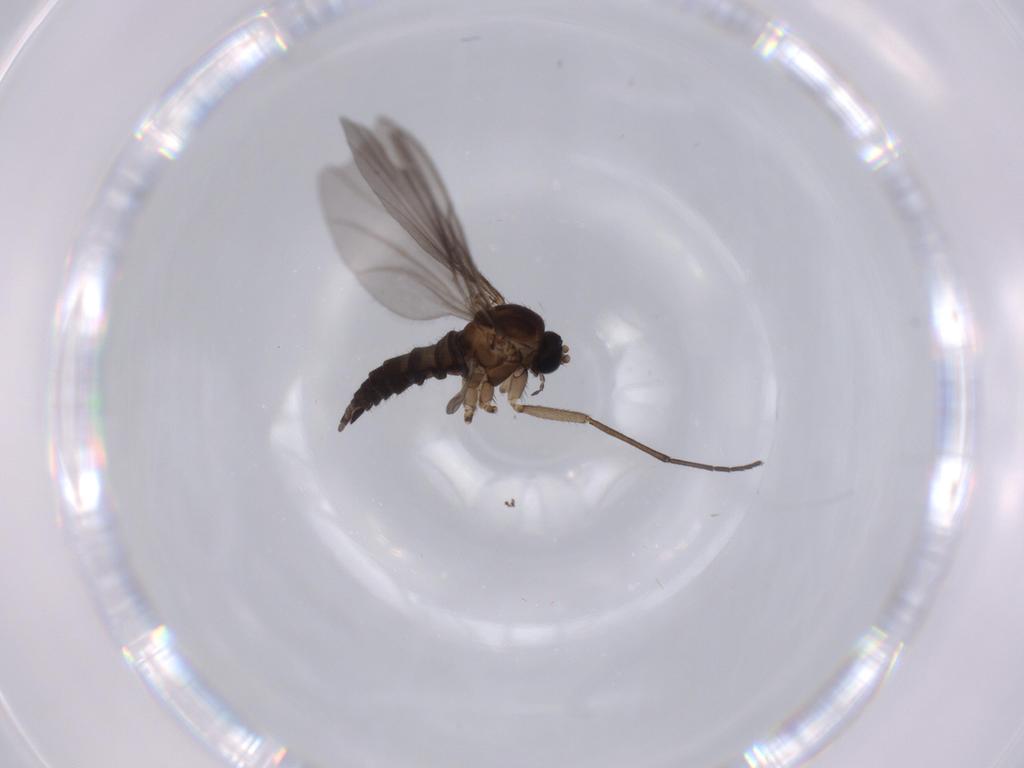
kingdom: Animalia
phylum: Arthropoda
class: Insecta
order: Diptera
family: Sciaridae
